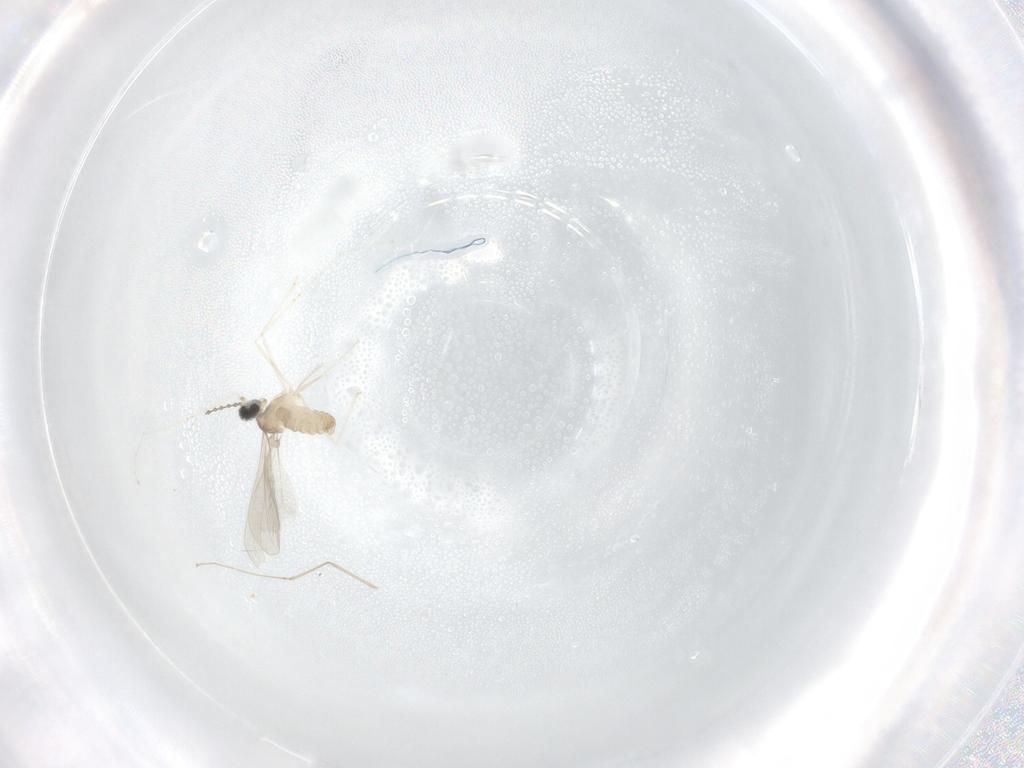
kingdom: Animalia
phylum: Arthropoda
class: Insecta
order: Diptera
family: Cecidomyiidae
